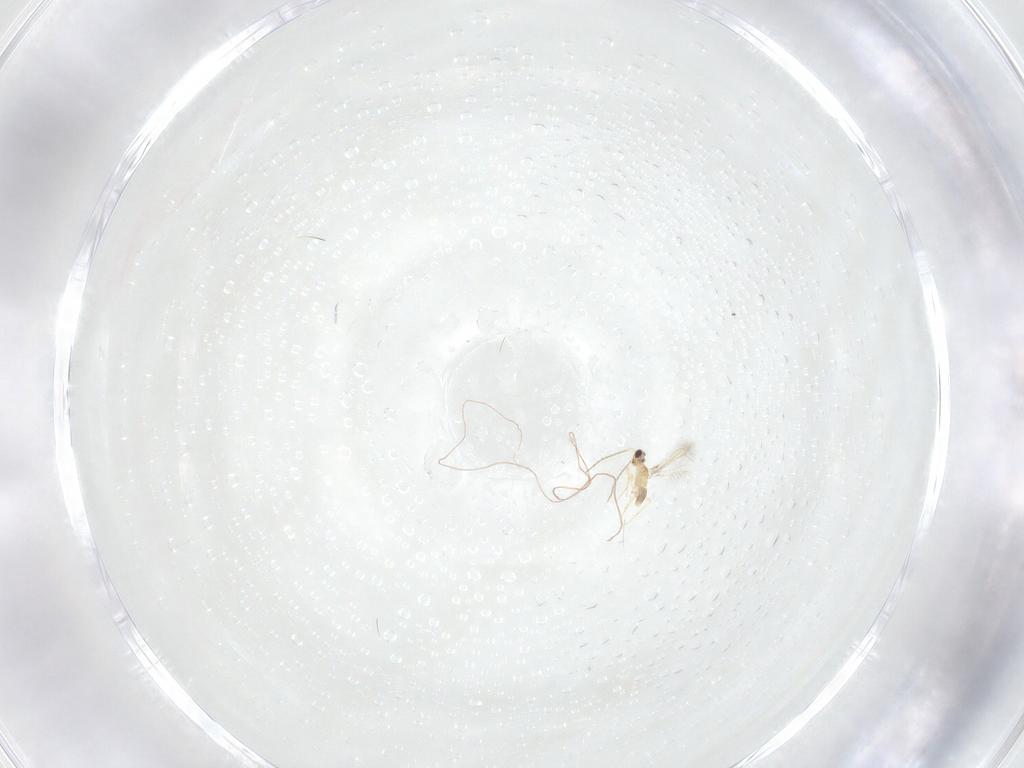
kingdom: Animalia
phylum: Arthropoda
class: Insecta
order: Hymenoptera
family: Mymaridae
